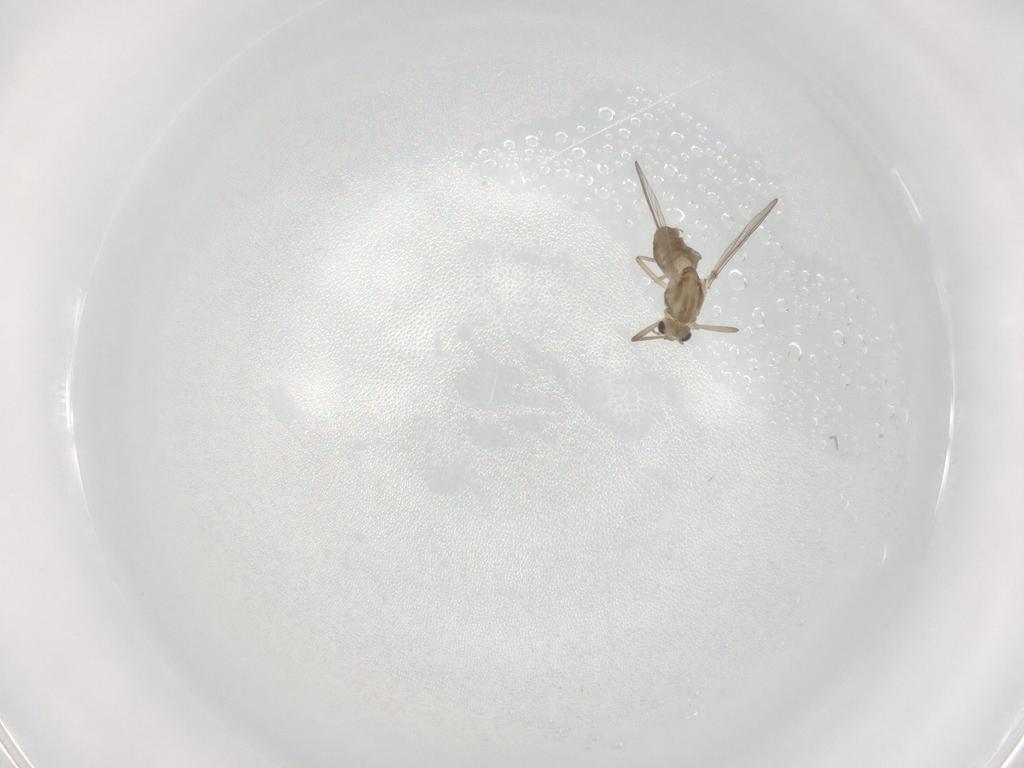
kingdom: Animalia
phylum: Arthropoda
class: Insecta
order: Diptera
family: Chironomidae
